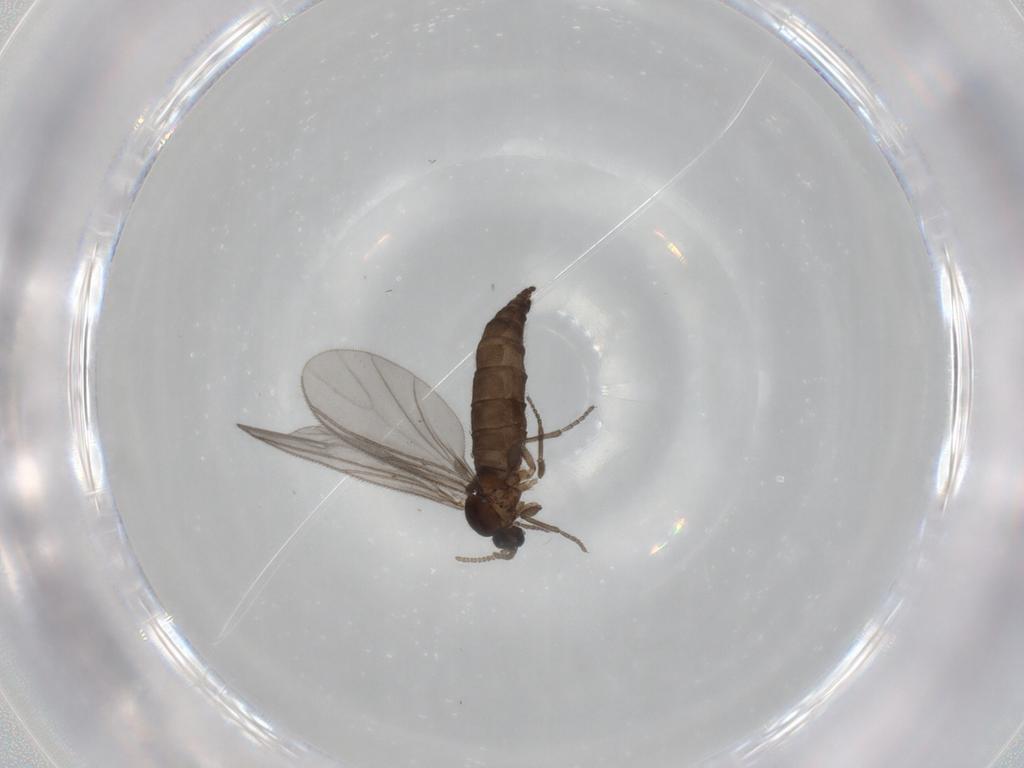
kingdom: Animalia
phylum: Arthropoda
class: Insecta
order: Diptera
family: Sciaridae
